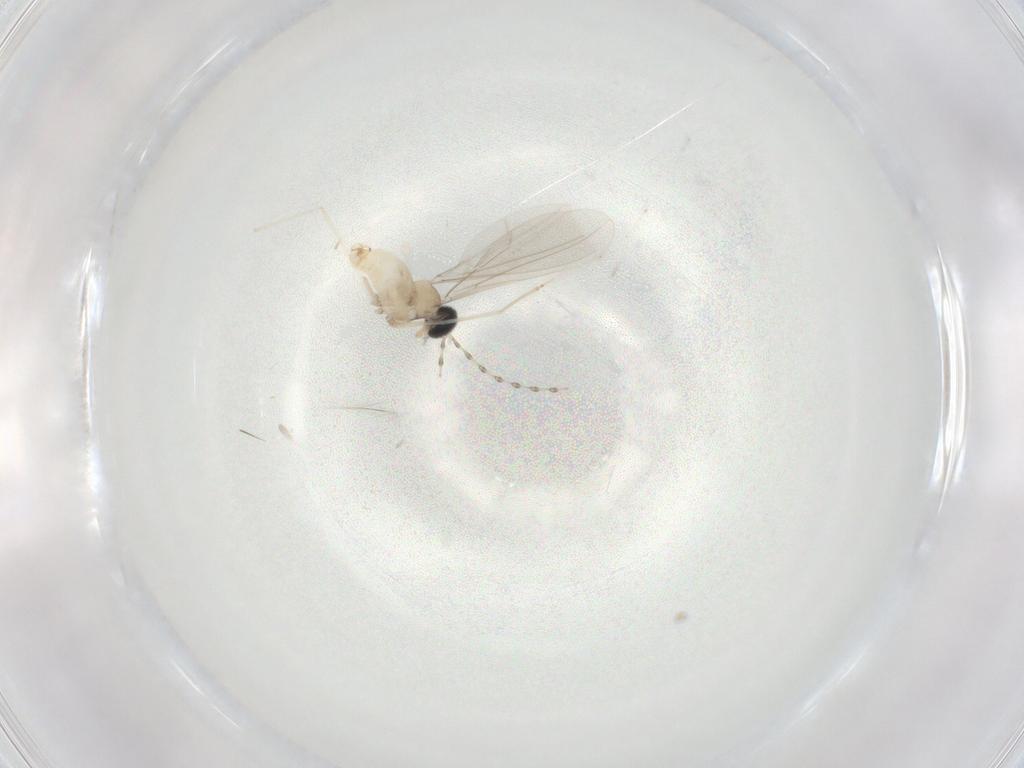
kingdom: Animalia
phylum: Arthropoda
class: Insecta
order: Diptera
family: Cecidomyiidae
